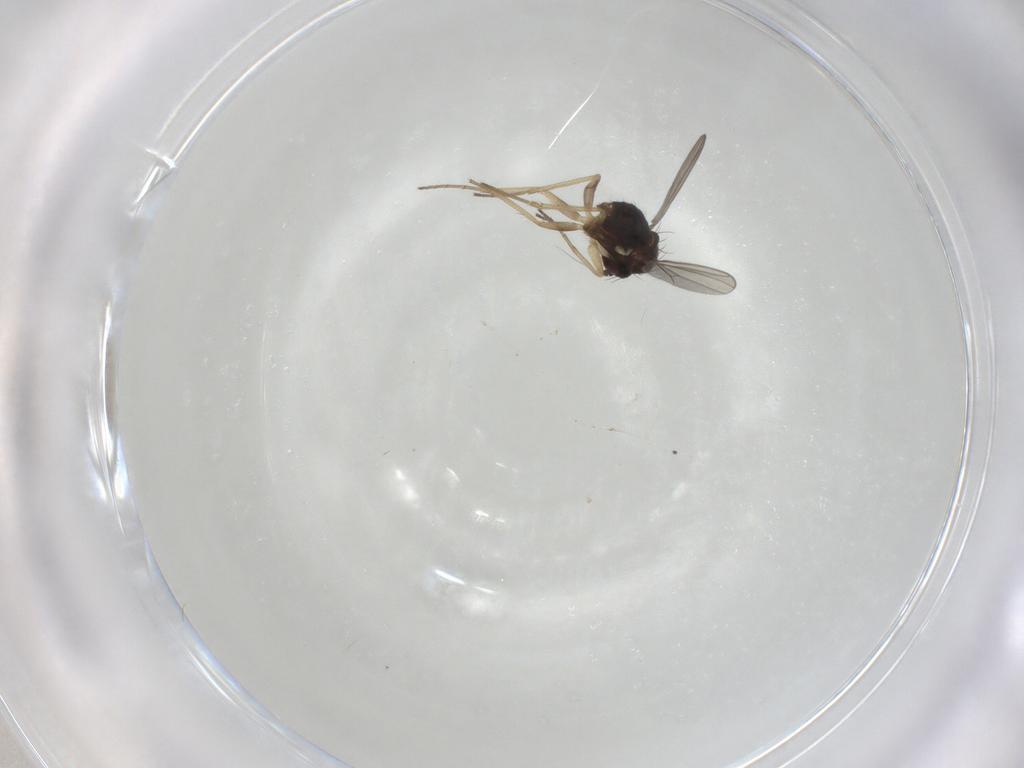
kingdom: Animalia
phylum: Arthropoda
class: Insecta
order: Diptera
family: Dolichopodidae
